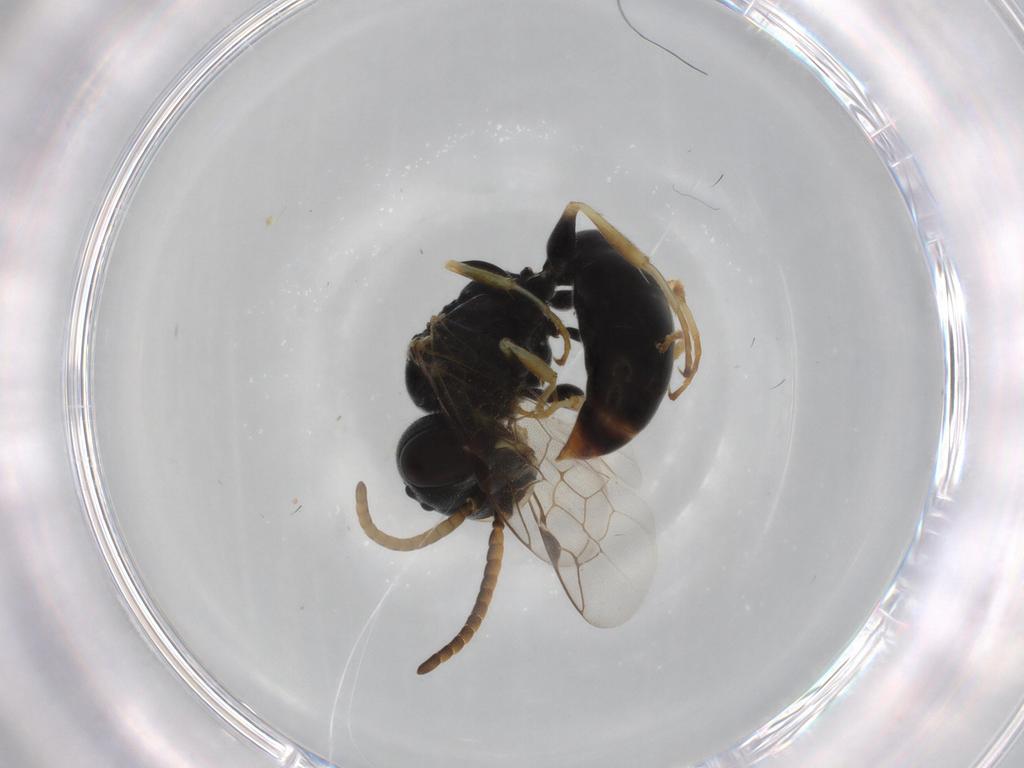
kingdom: Animalia
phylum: Arthropoda
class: Insecta
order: Hymenoptera
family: Crabronidae
